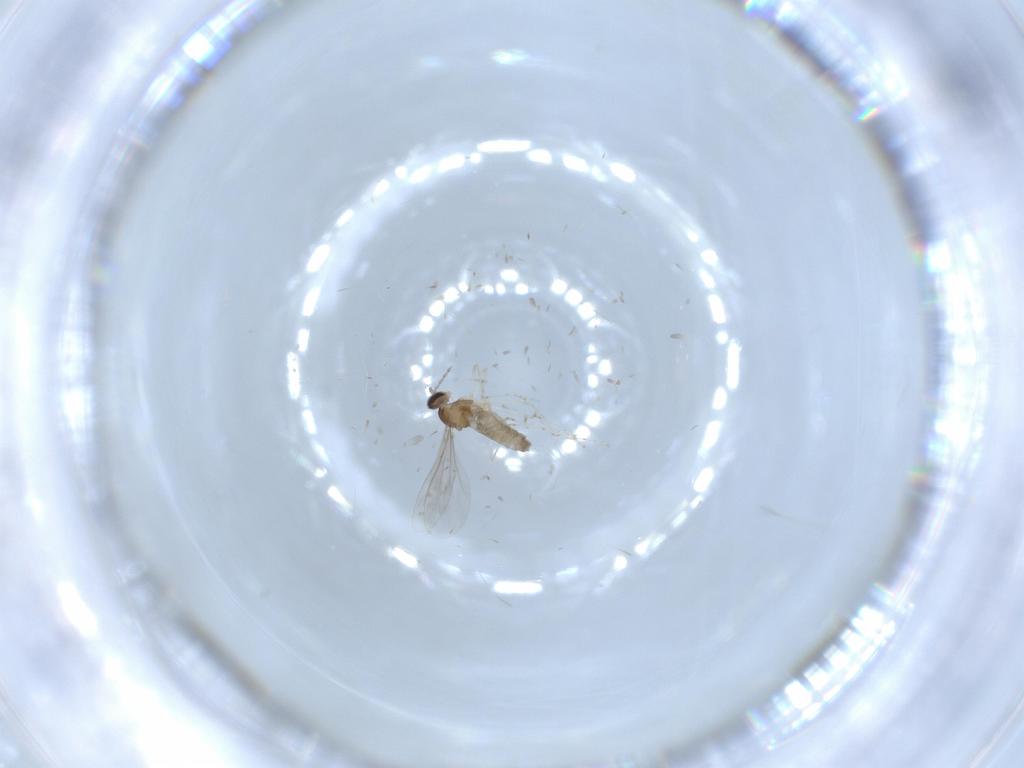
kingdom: Animalia
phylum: Arthropoda
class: Insecta
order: Diptera
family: Cecidomyiidae
